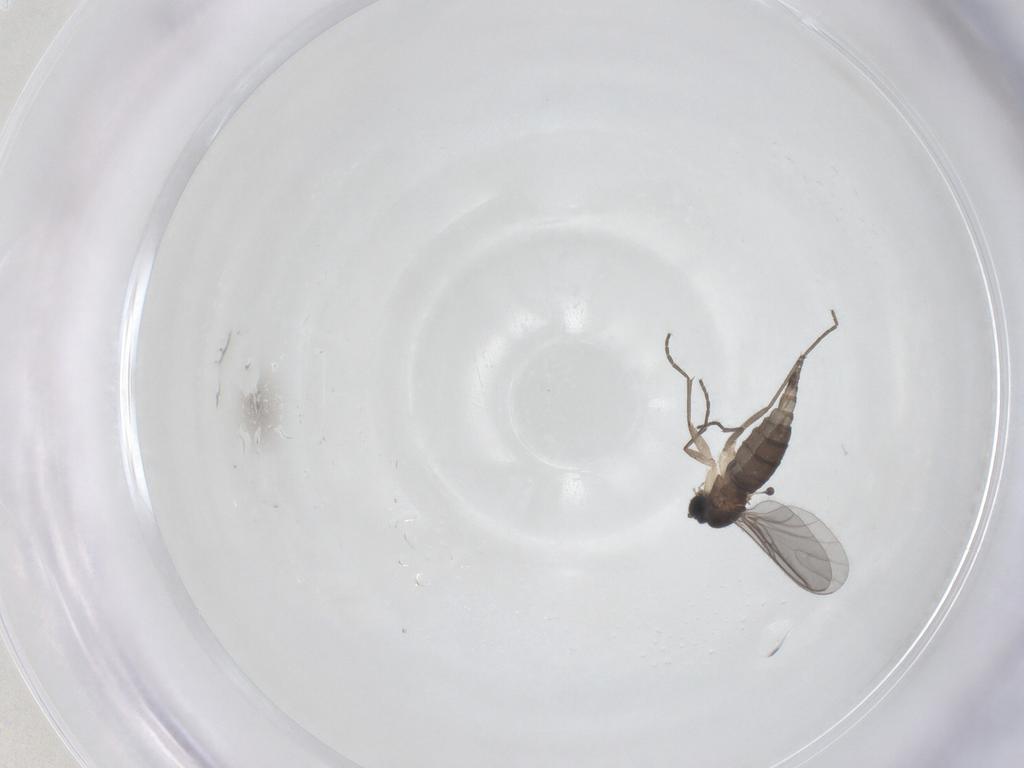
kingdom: Animalia
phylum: Arthropoda
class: Insecta
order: Diptera
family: Sciaridae
